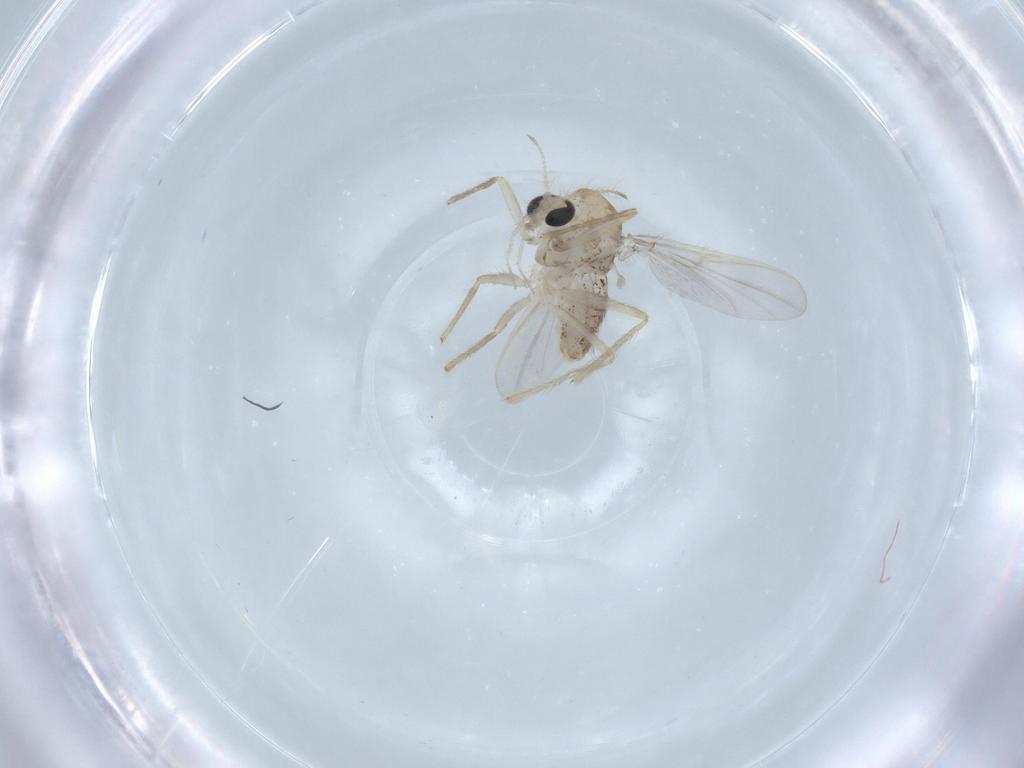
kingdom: Animalia
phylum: Arthropoda
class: Insecta
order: Diptera
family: Chironomidae
